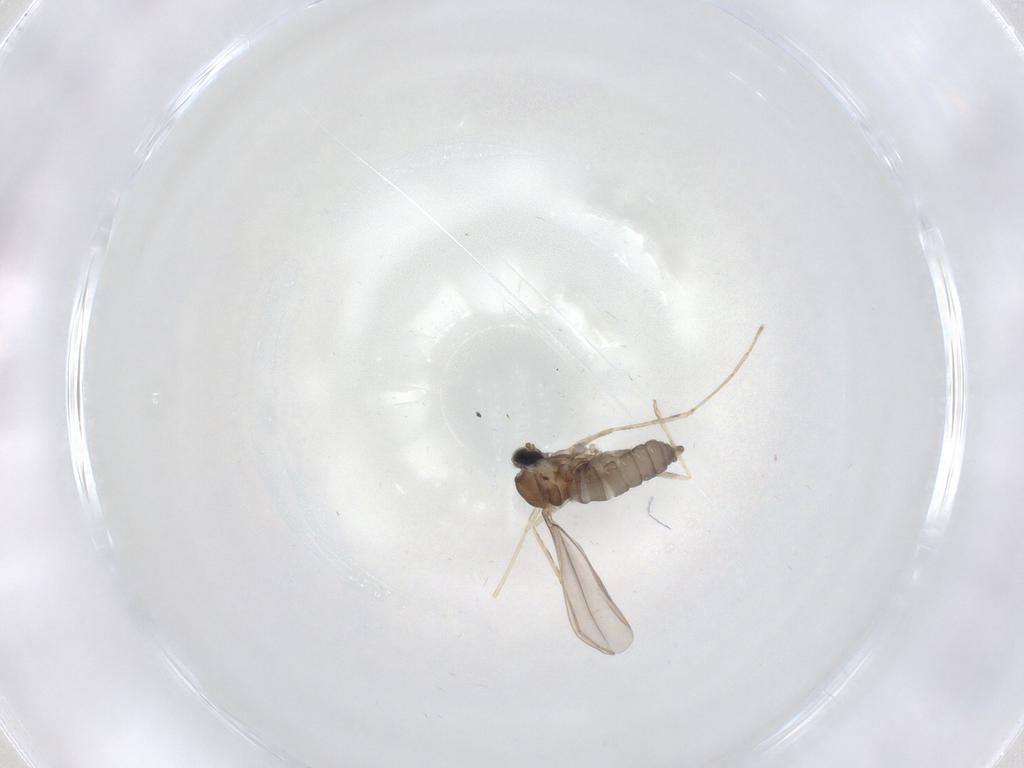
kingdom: Animalia
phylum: Arthropoda
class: Insecta
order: Diptera
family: Cecidomyiidae
